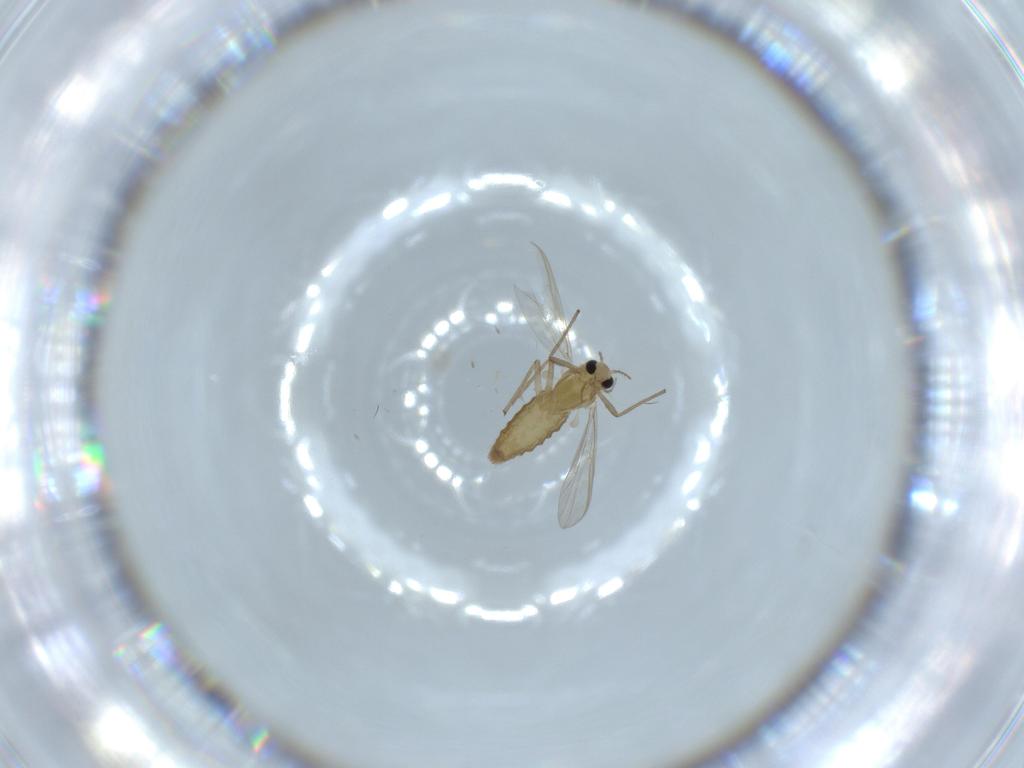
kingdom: Animalia
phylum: Arthropoda
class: Insecta
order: Diptera
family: Chironomidae
